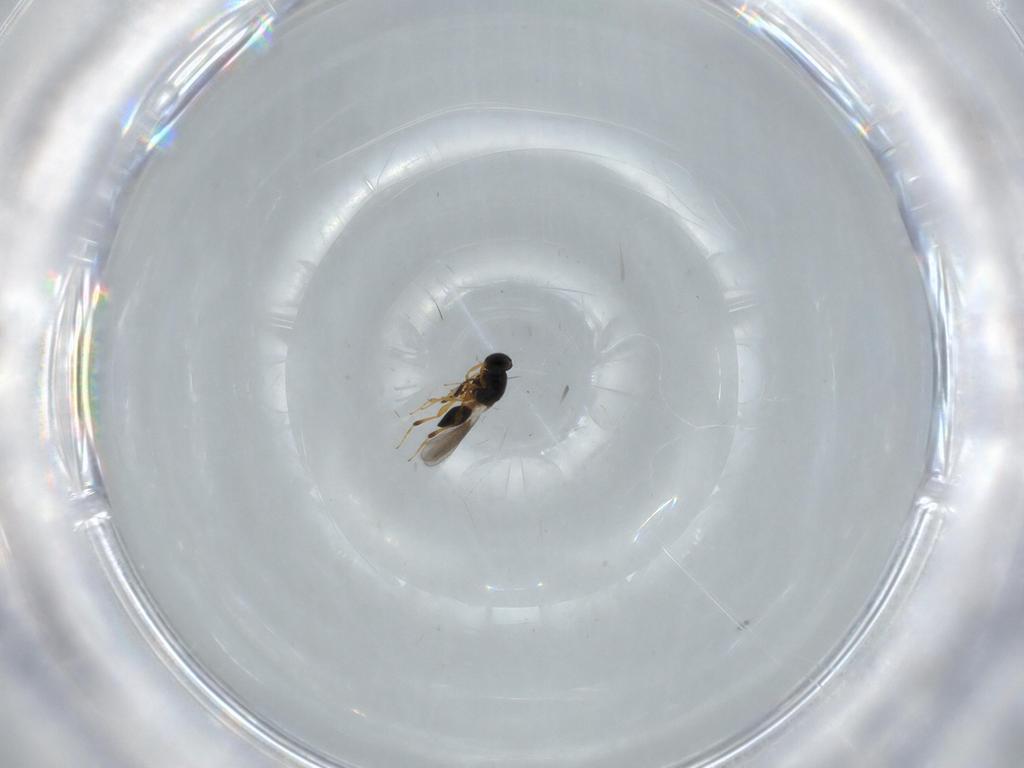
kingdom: Animalia
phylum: Arthropoda
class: Insecta
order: Hymenoptera
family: Platygastridae
